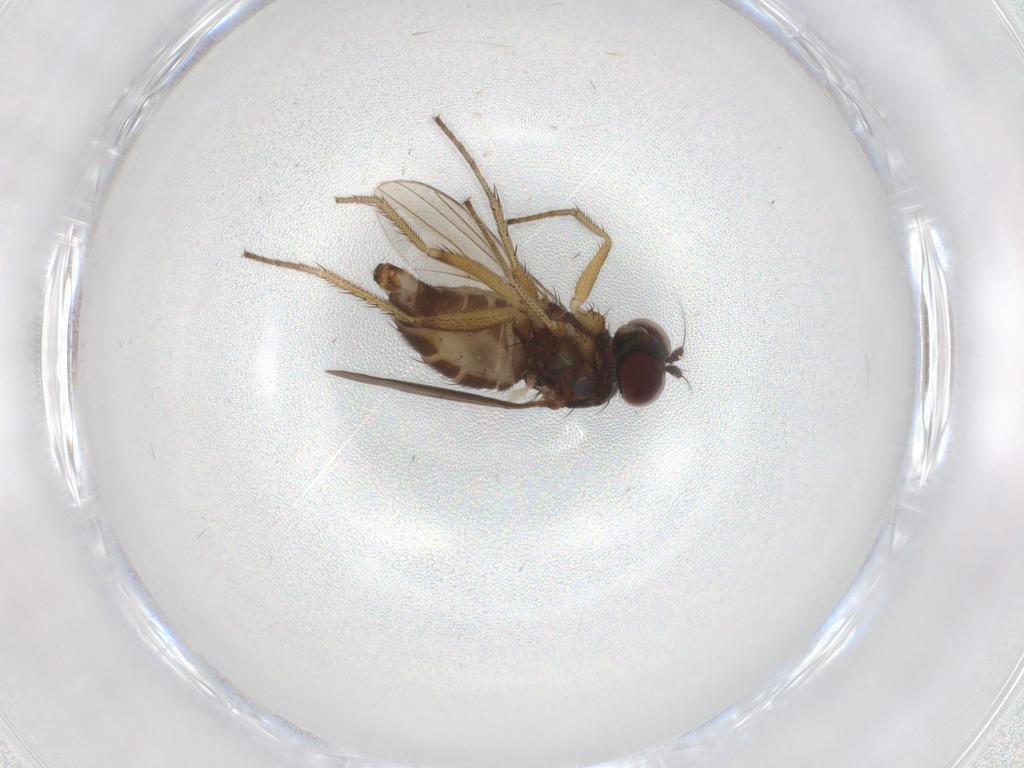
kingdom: Animalia
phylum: Arthropoda
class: Insecta
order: Diptera
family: Dolichopodidae
